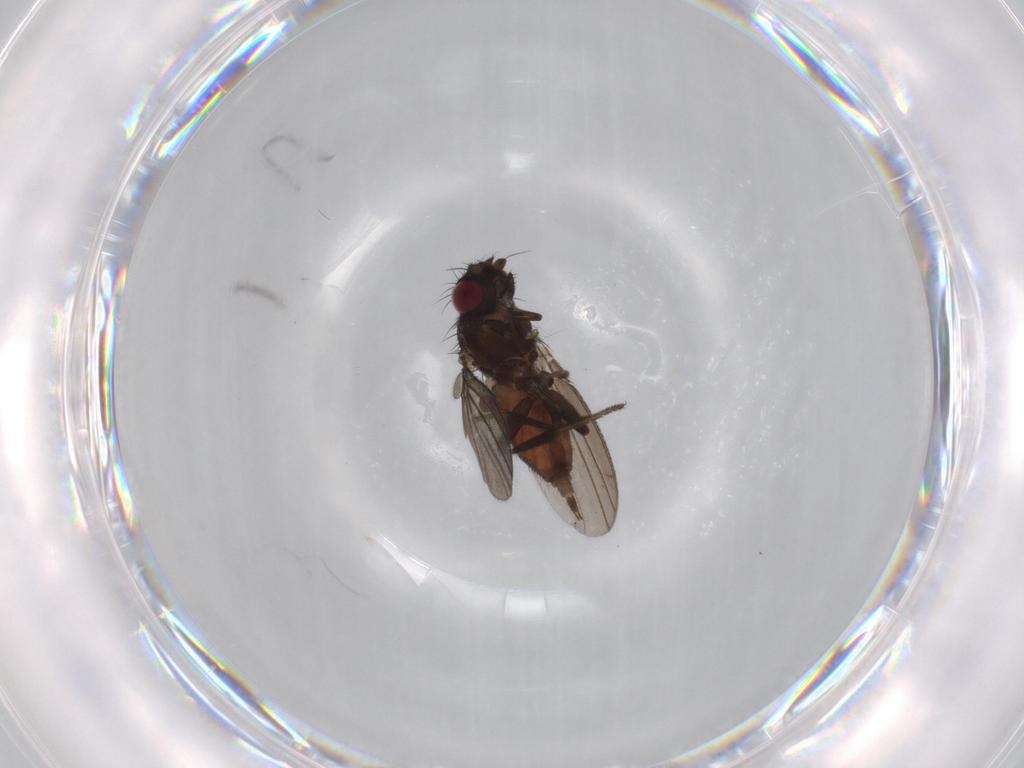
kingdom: Animalia
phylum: Arthropoda
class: Insecta
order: Diptera
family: Milichiidae
